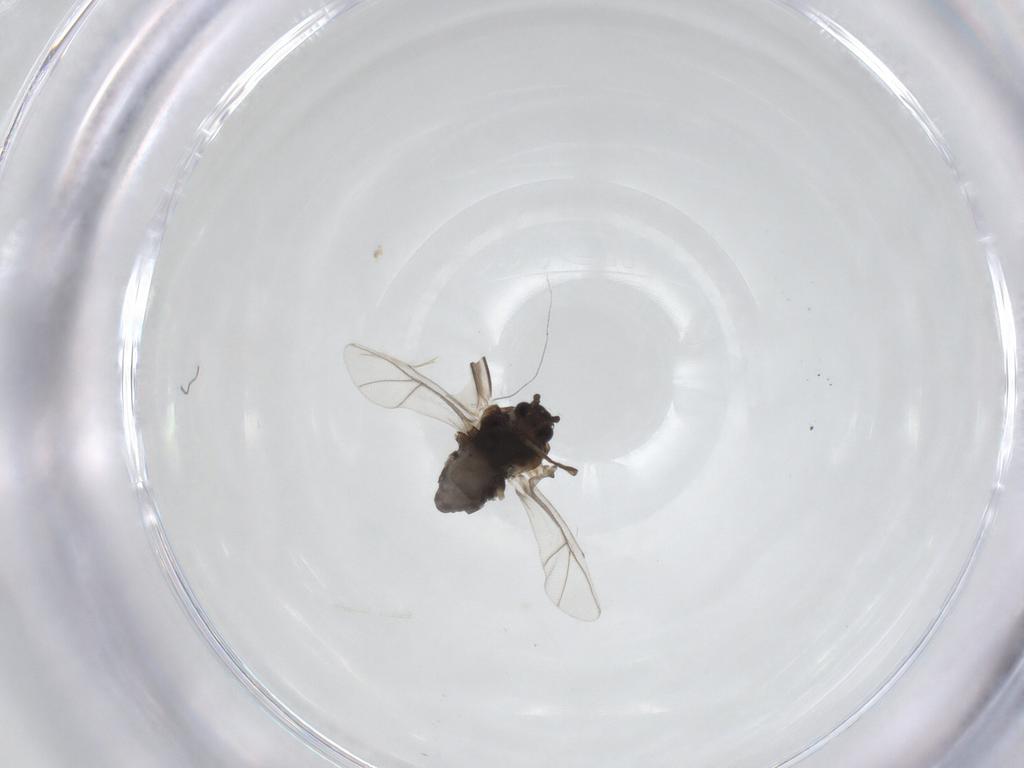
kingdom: Animalia
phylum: Arthropoda
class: Insecta
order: Hemiptera
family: Aphididae
